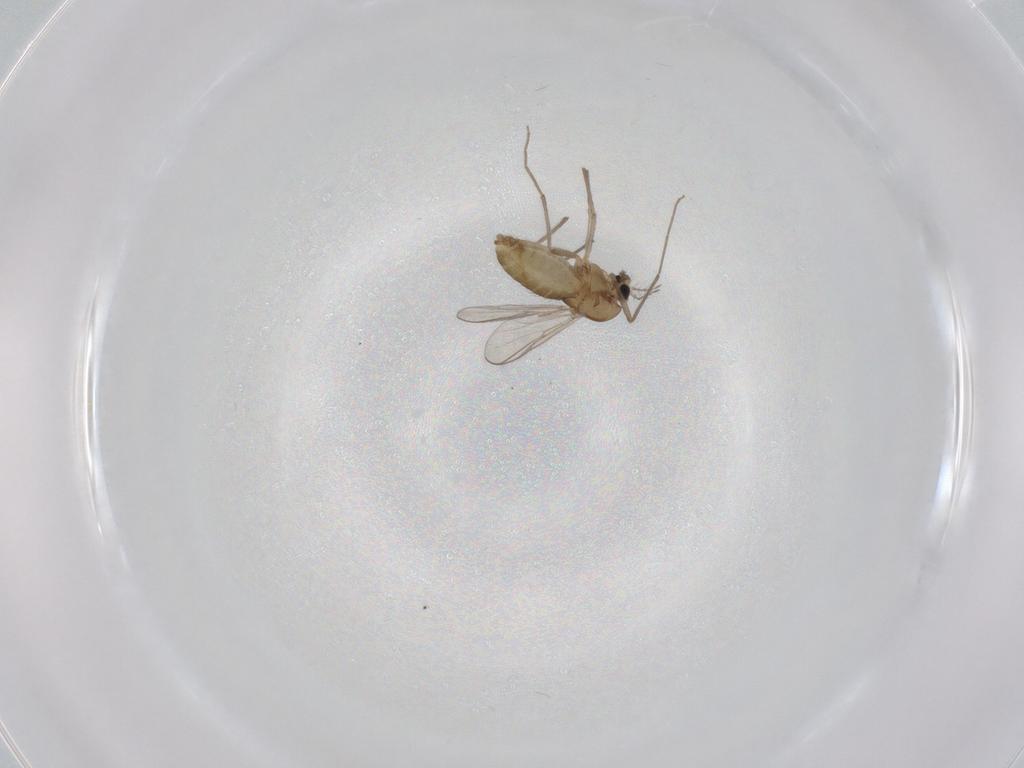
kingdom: Animalia
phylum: Arthropoda
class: Insecta
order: Diptera
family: Chironomidae
